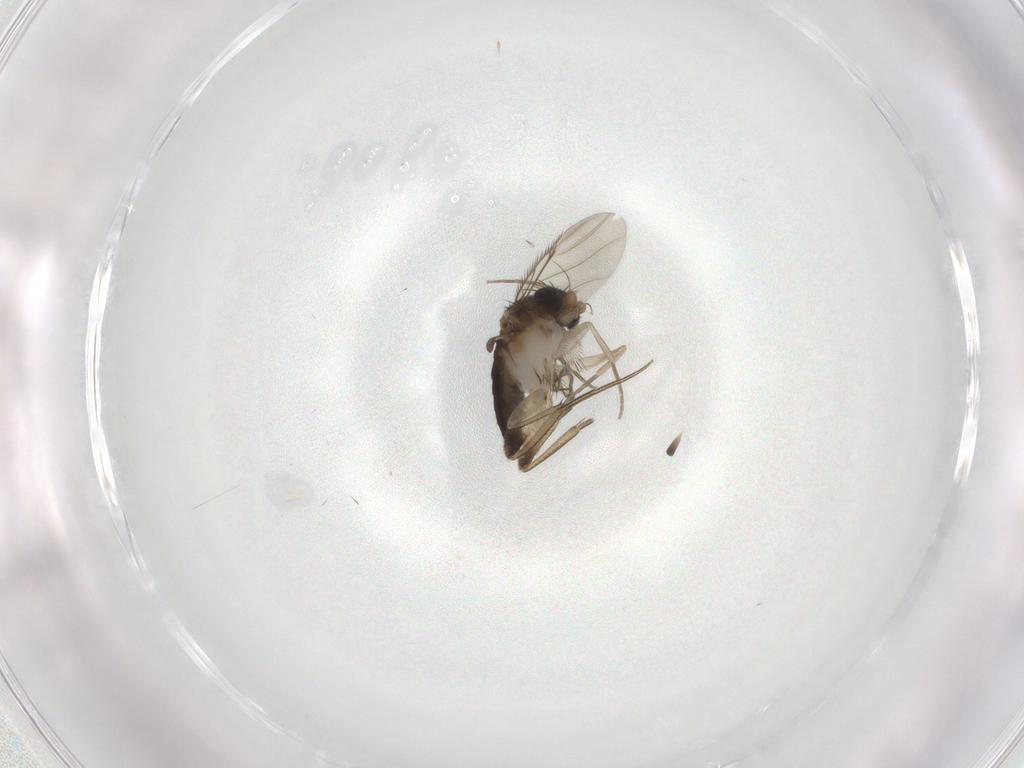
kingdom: Animalia
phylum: Arthropoda
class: Insecta
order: Diptera
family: Phoridae
